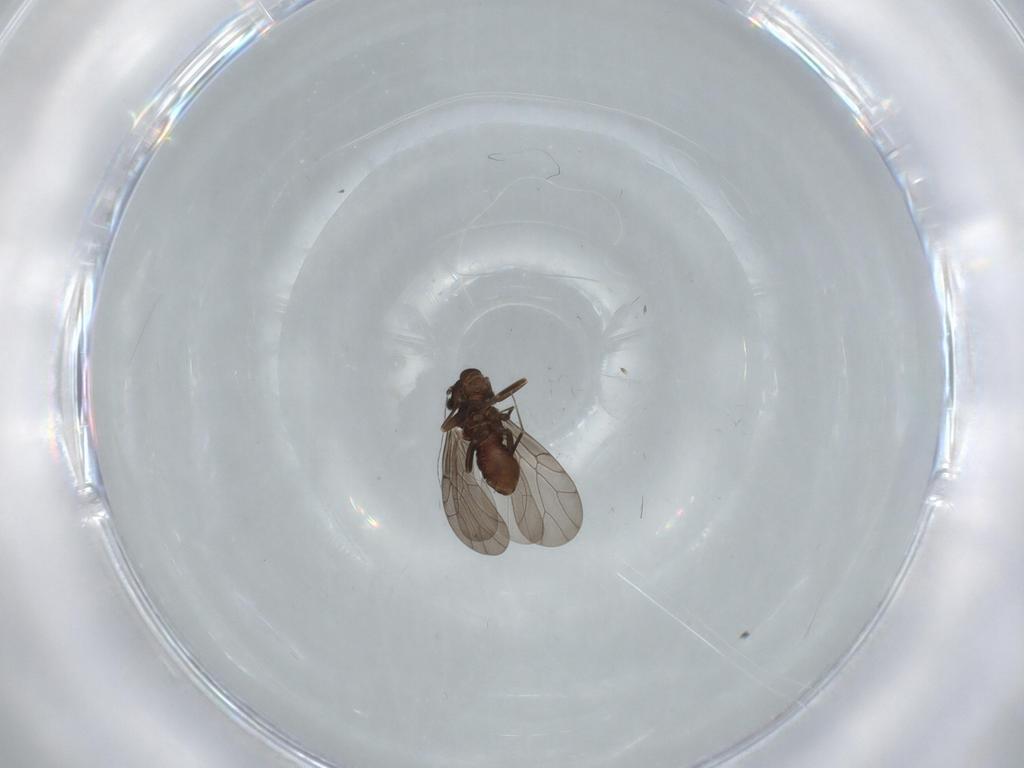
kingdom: Animalia
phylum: Arthropoda
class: Insecta
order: Psocodea
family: Lepidopsocidae
